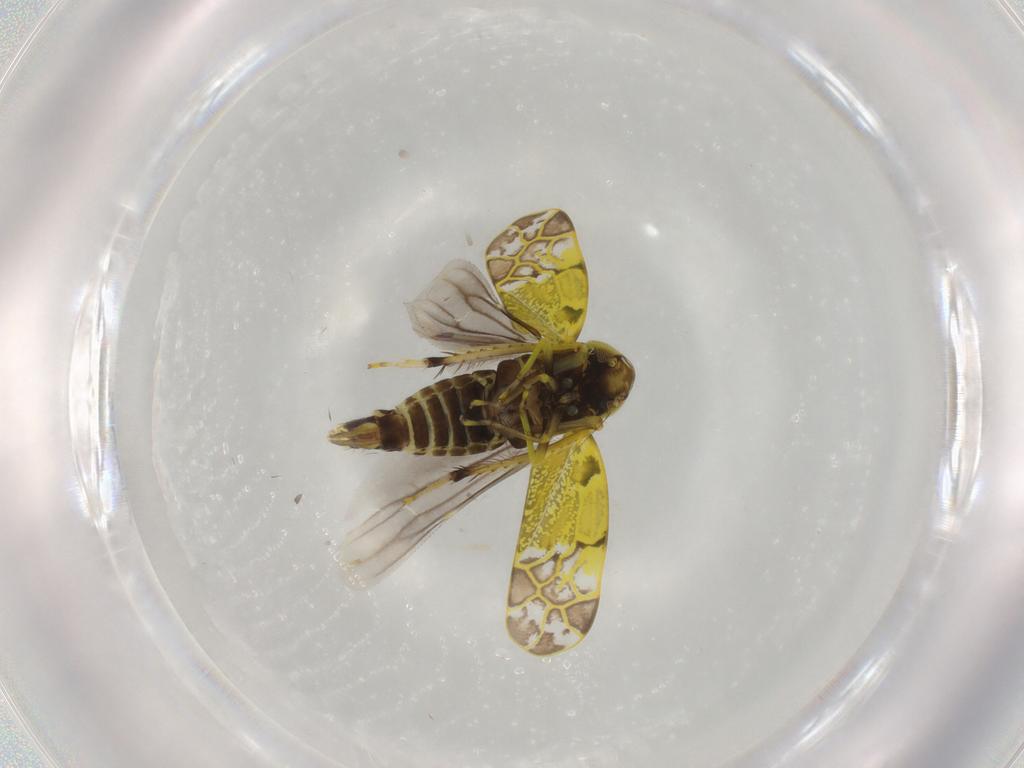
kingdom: Animalia
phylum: Arthropoda
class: Insecta
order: Hemiptera
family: Cicadellidae
